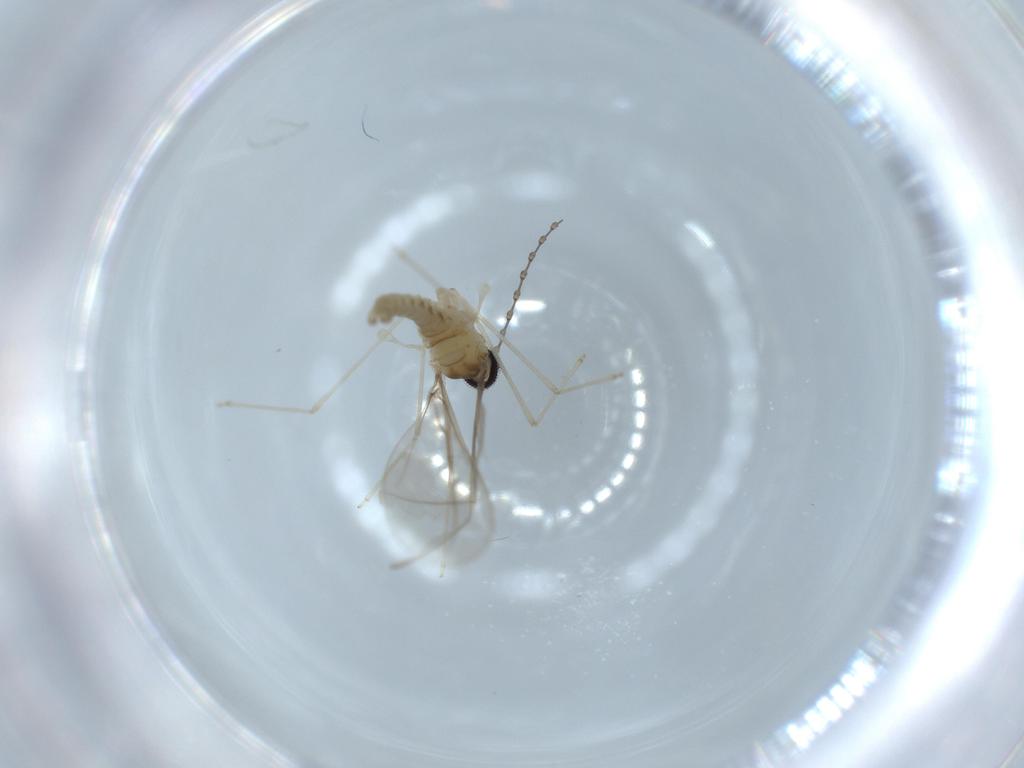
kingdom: Animalia
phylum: Arthropoda
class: Insecta
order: Diptera
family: Cecidomyiidae
